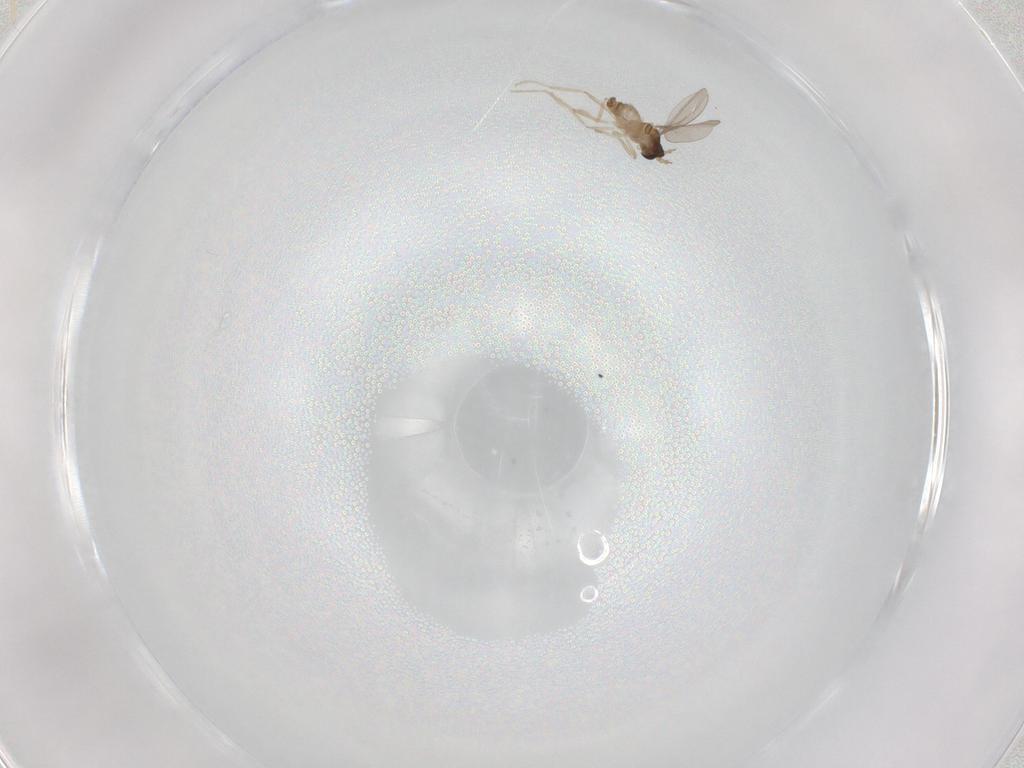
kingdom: Animalia
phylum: Arthropoda
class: Insecta
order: Diptera
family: Cecidomyiidae
